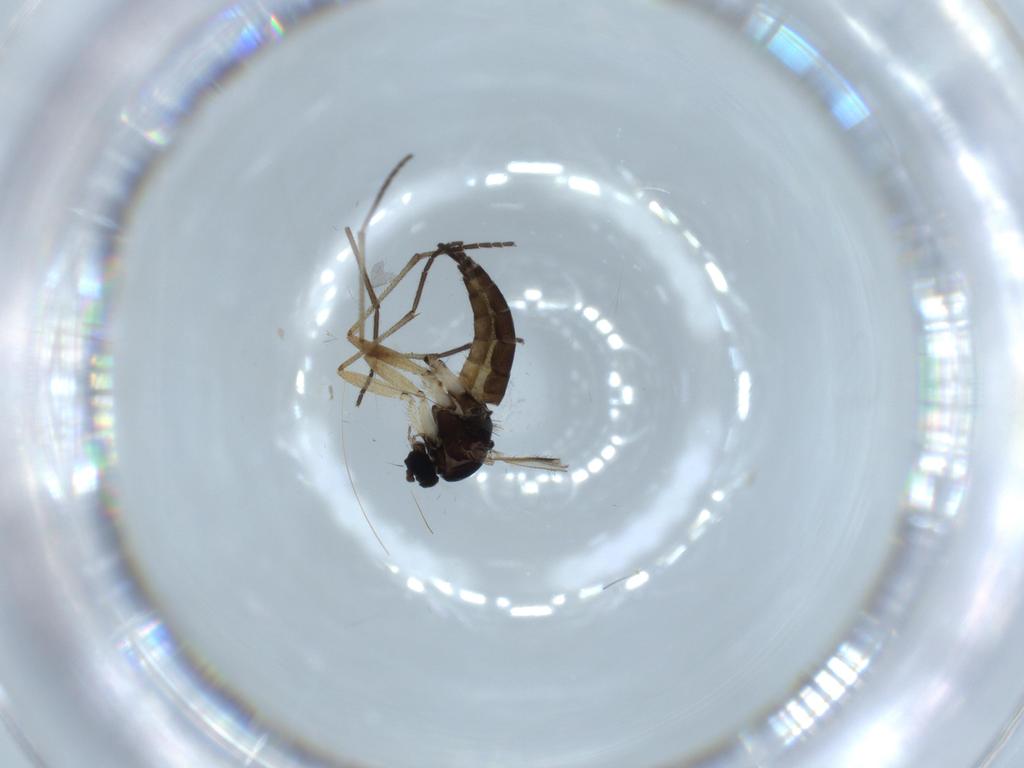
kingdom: Animalia
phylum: Arthropoda
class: Insecta
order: Diptera
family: Sciaridae
